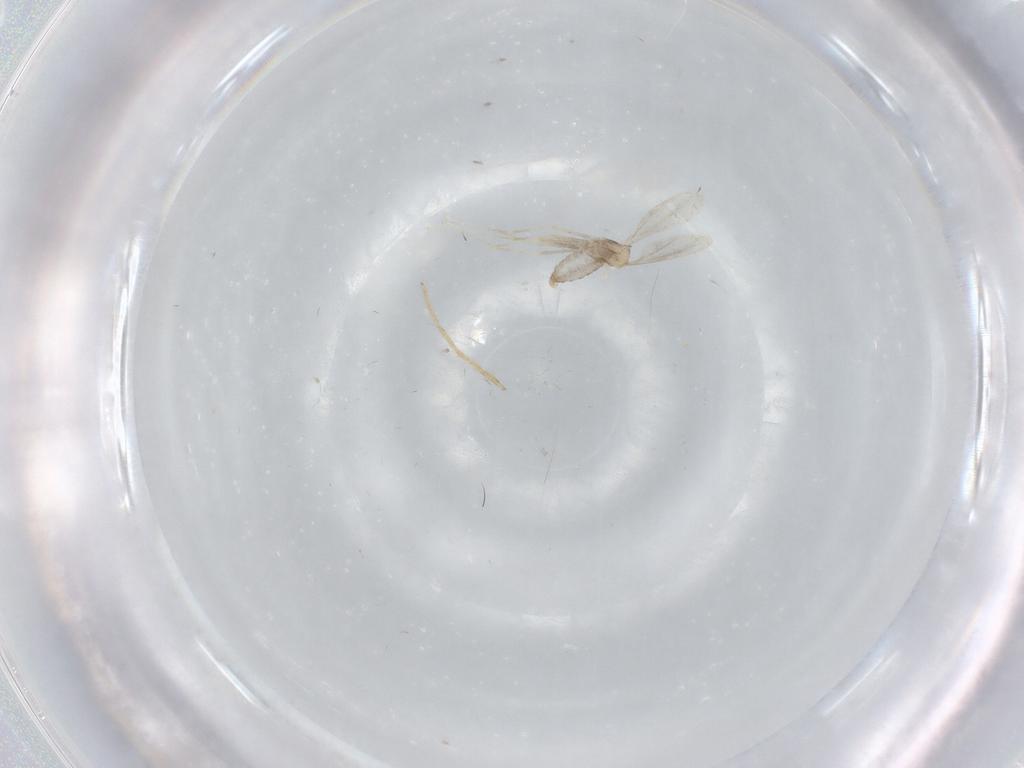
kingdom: Animalia
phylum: Arthropoda
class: Insecta
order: Diptera
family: Cecidomyiidae
